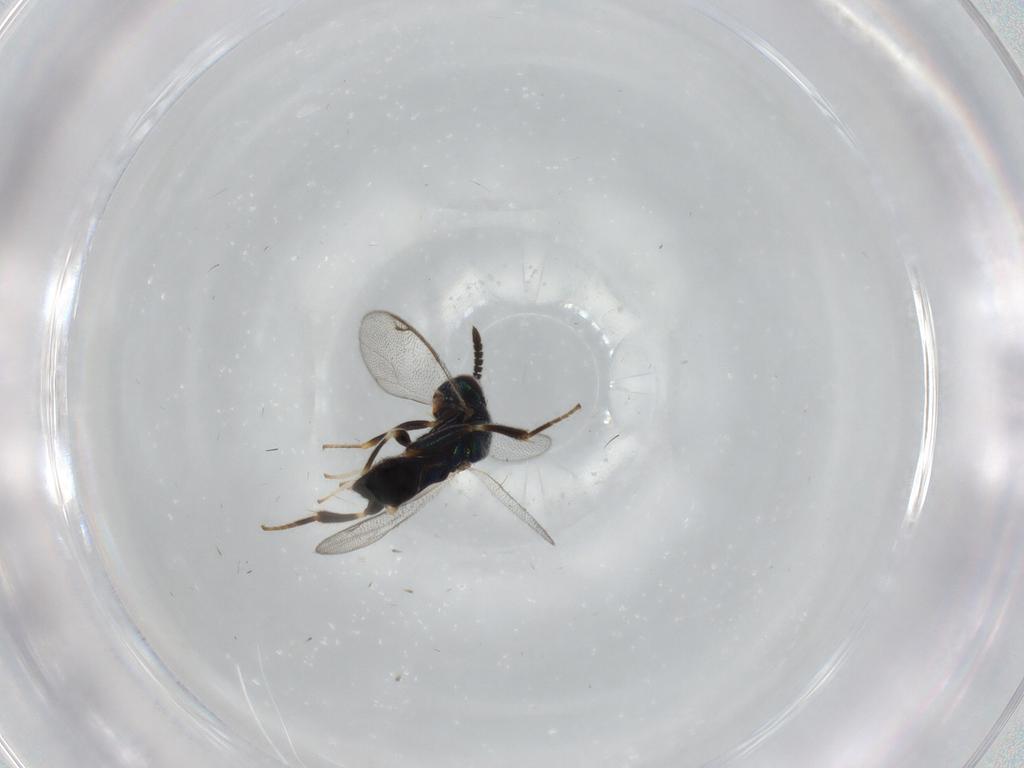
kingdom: Animalia
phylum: Arthropoda
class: Insecta
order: Hymenoptera
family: Cleonyminae
